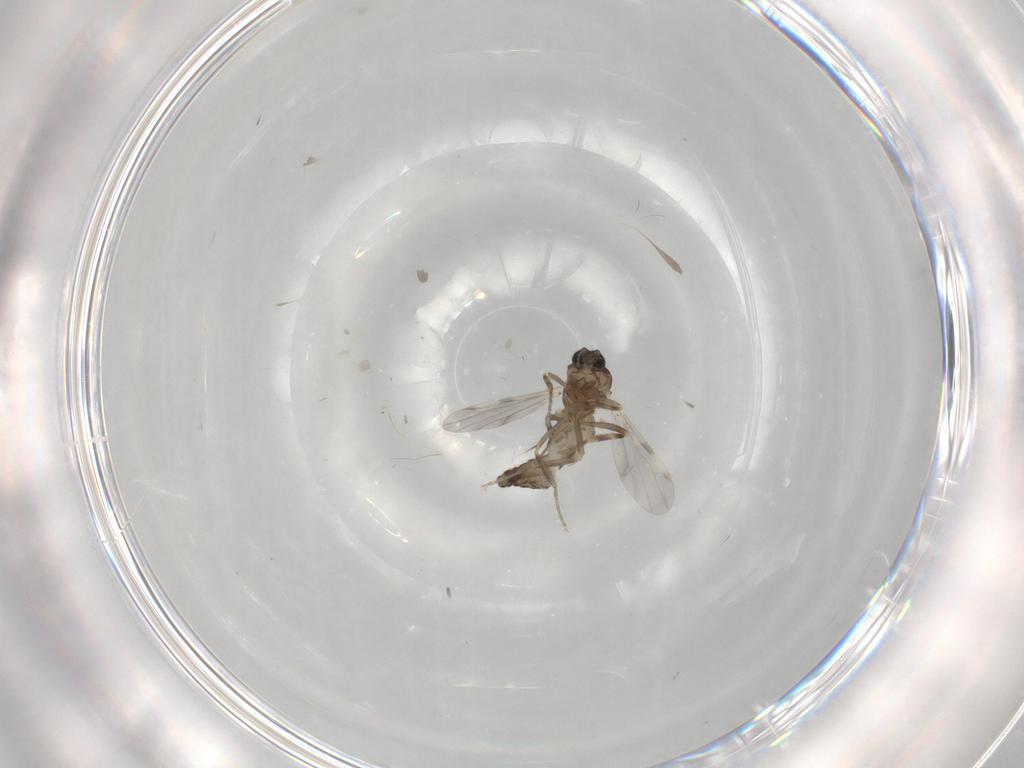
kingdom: Animalia
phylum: Arthropoda
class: Insecta
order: Diptera
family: Ceratopogonidae
